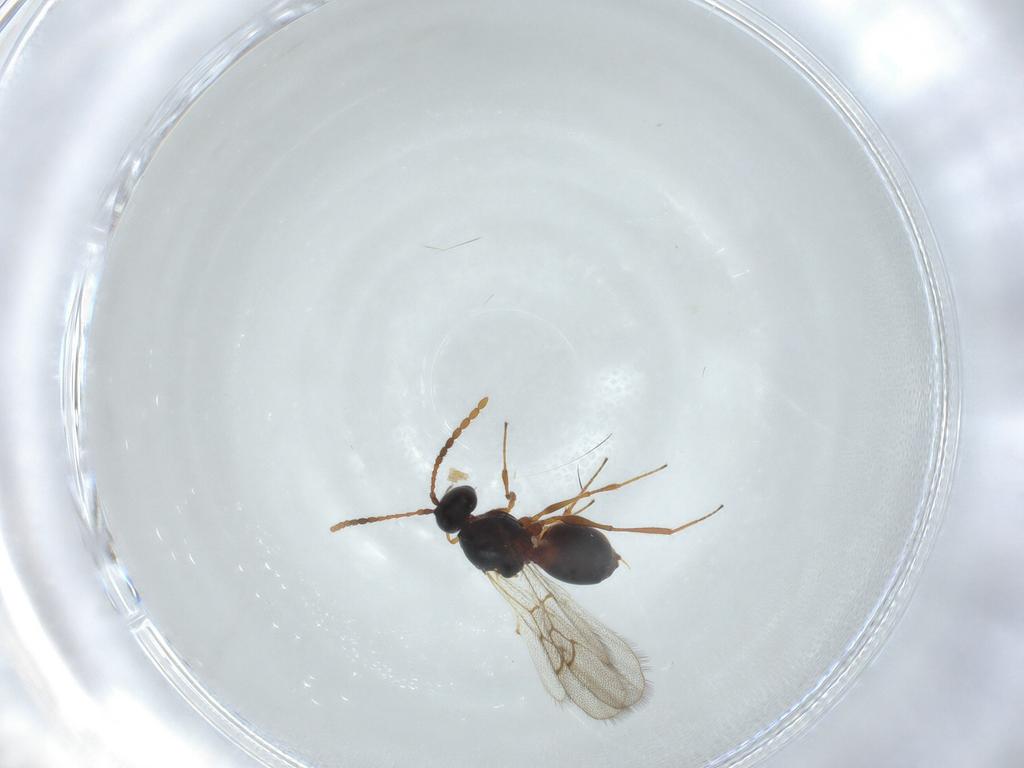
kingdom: Animalia
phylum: Arthropoda
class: Insecta
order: Hymenoptera
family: Figitidae
